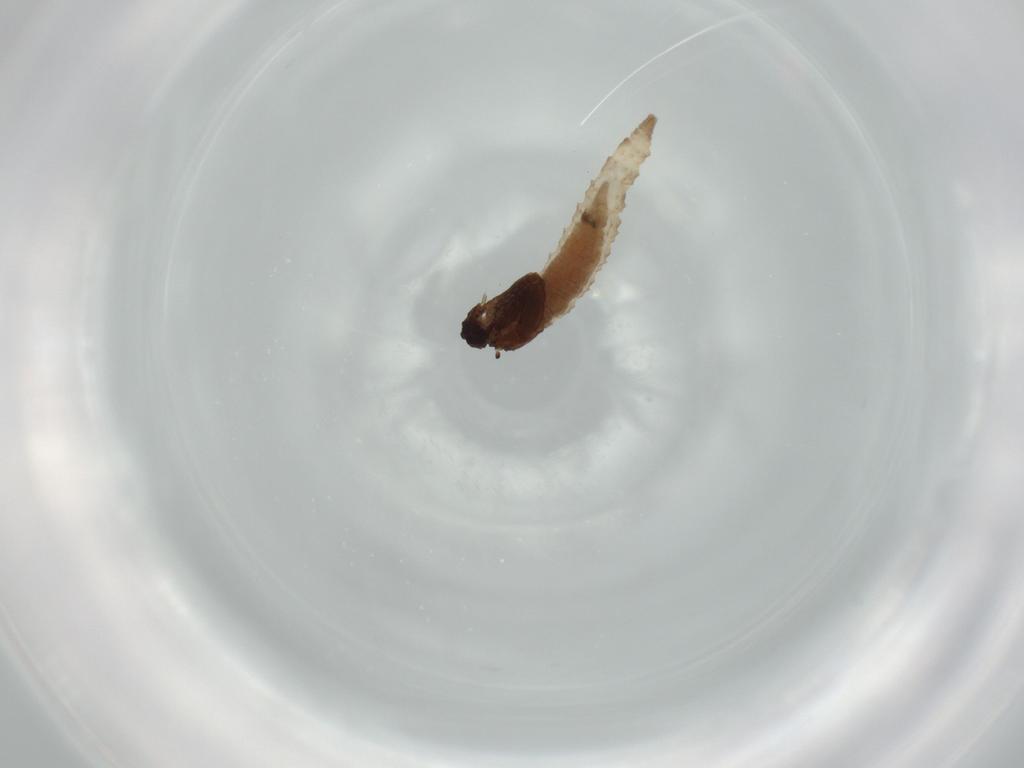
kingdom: Animalia
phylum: Arthropoda
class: Insecta
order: Diptera
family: Ceratopogonidae
